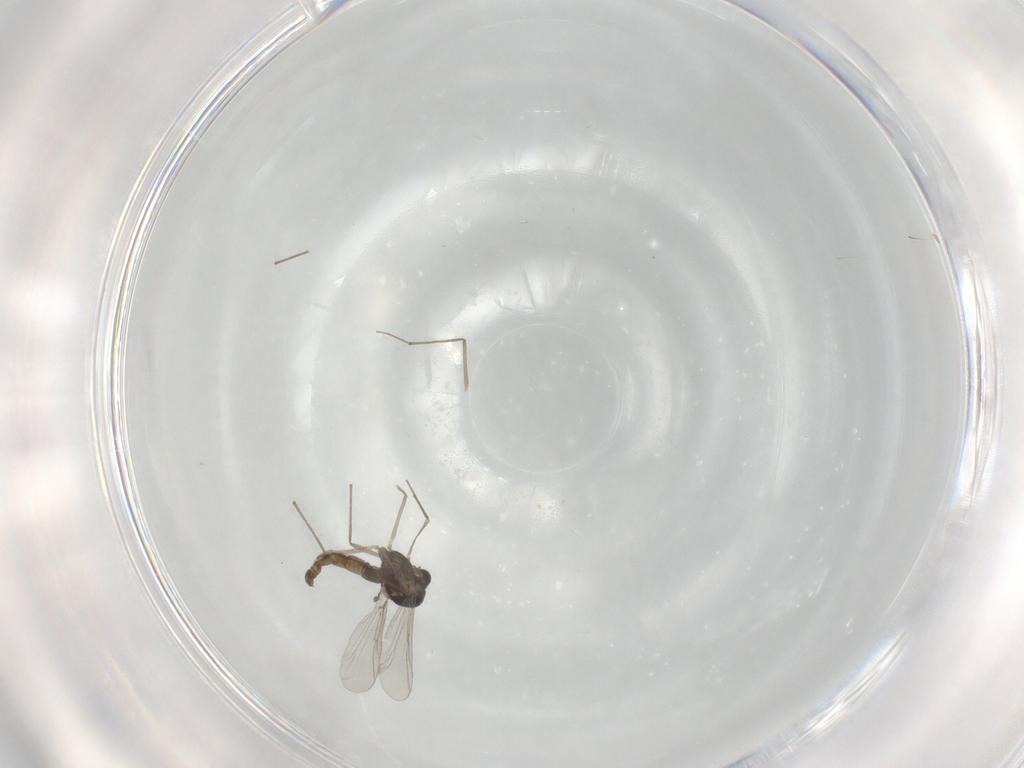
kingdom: Animalia
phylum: Arthropoda
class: Insecta
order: Diptera
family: Chironomidae
